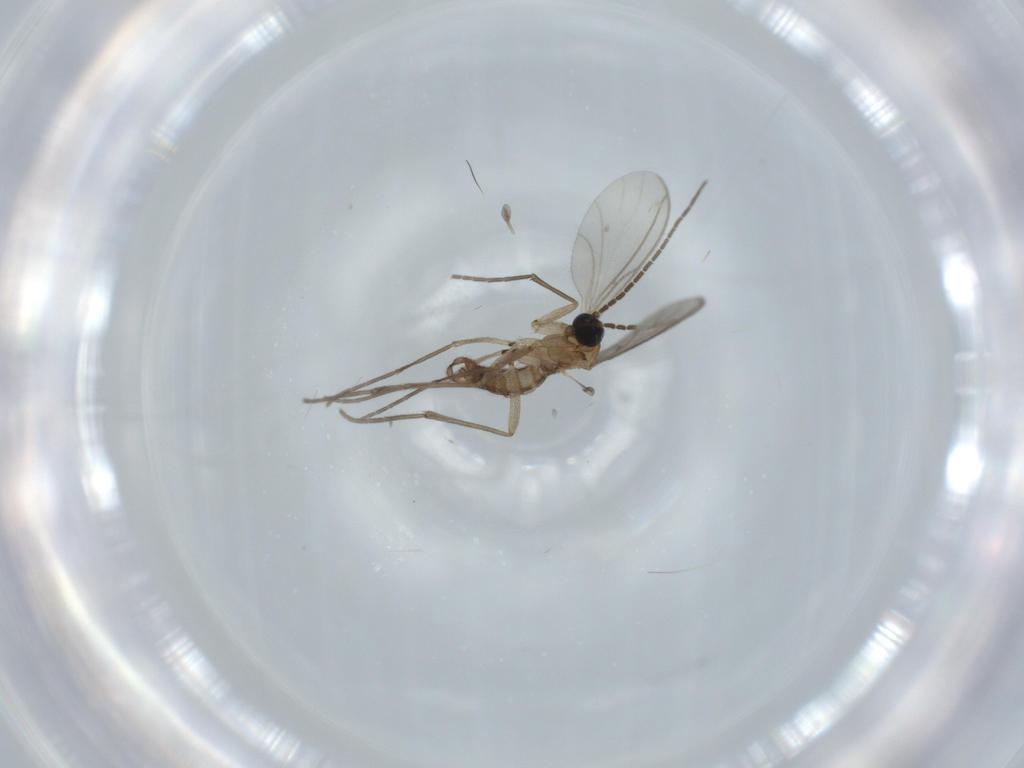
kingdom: Animalia
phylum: Arthropoda
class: Insecta
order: Diptera
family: Sciaridae
